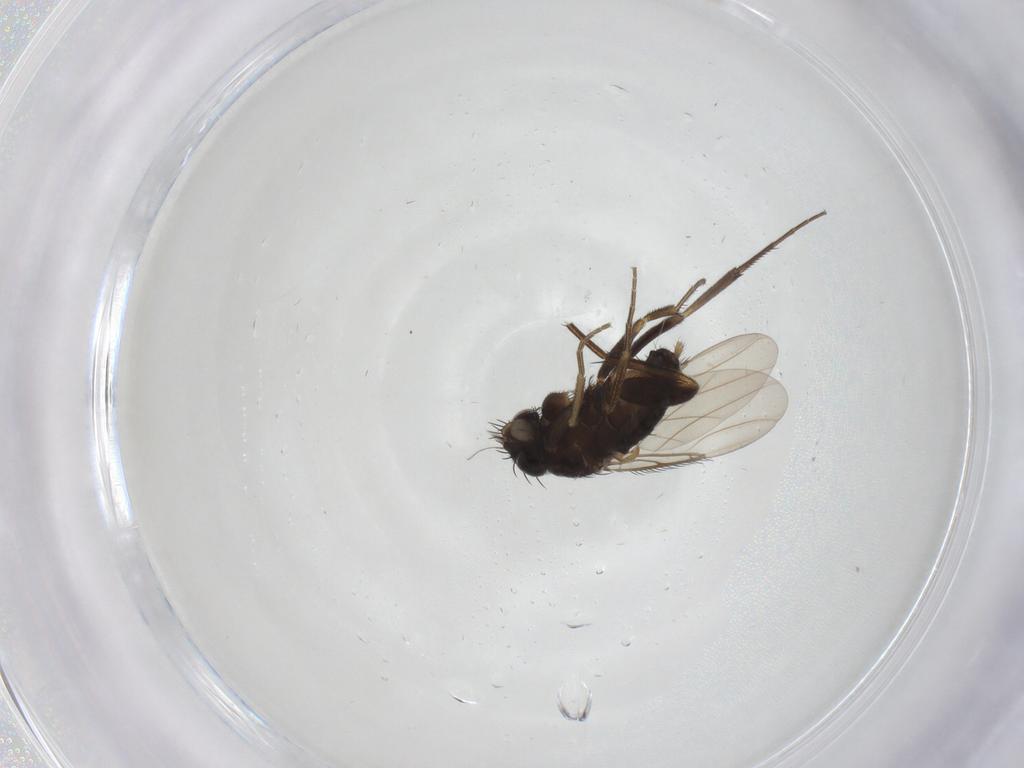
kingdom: Animalia
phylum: Arthropoda
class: Insecta
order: Diptera
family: Phoridae
